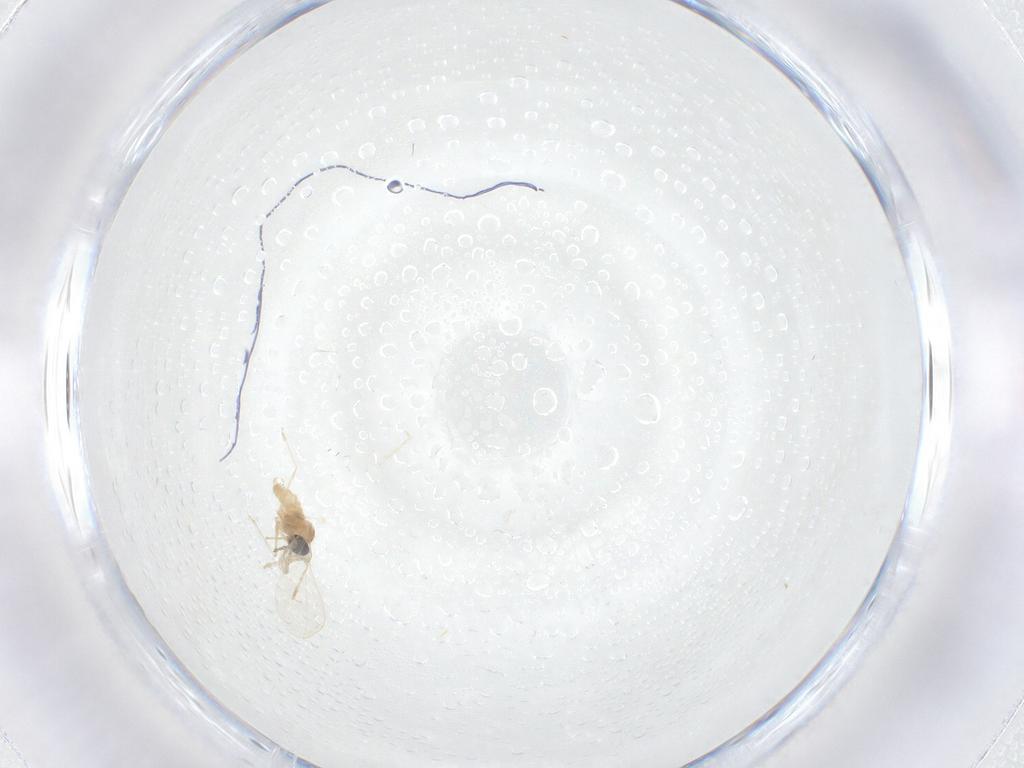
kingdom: Animalia
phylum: Arthropoda
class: Insecta
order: Diptera
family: Cecidomyiidae
